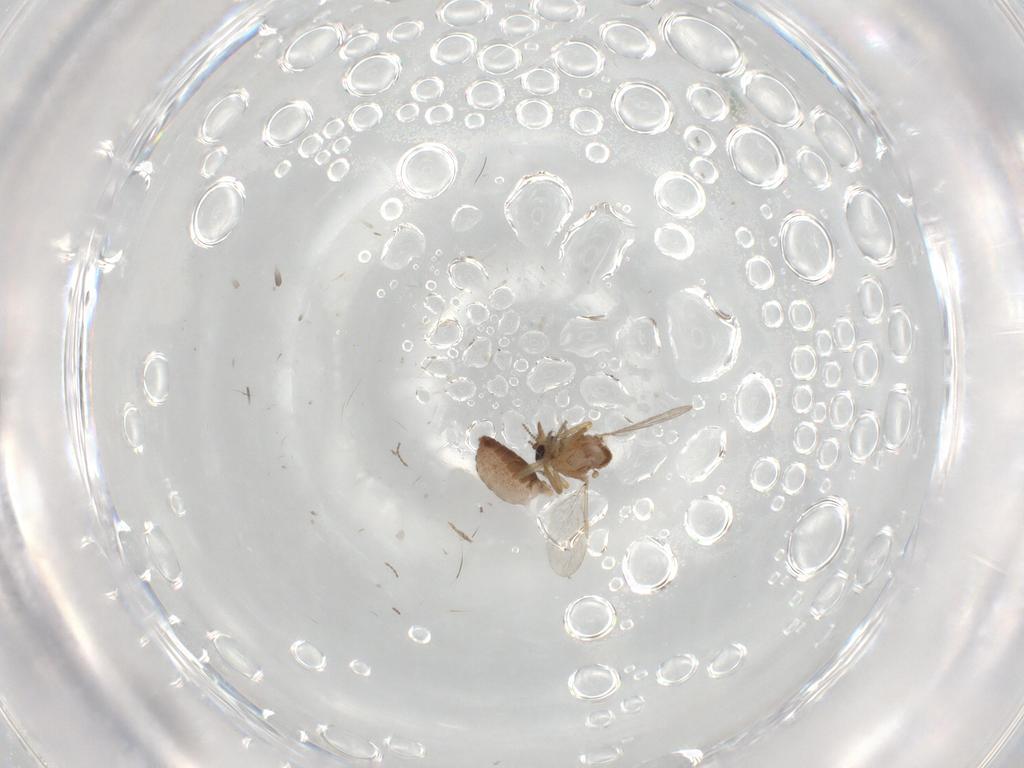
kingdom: Animalia
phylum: Arthropoda
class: Insecta
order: Diptera
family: Ceratopogonidae
